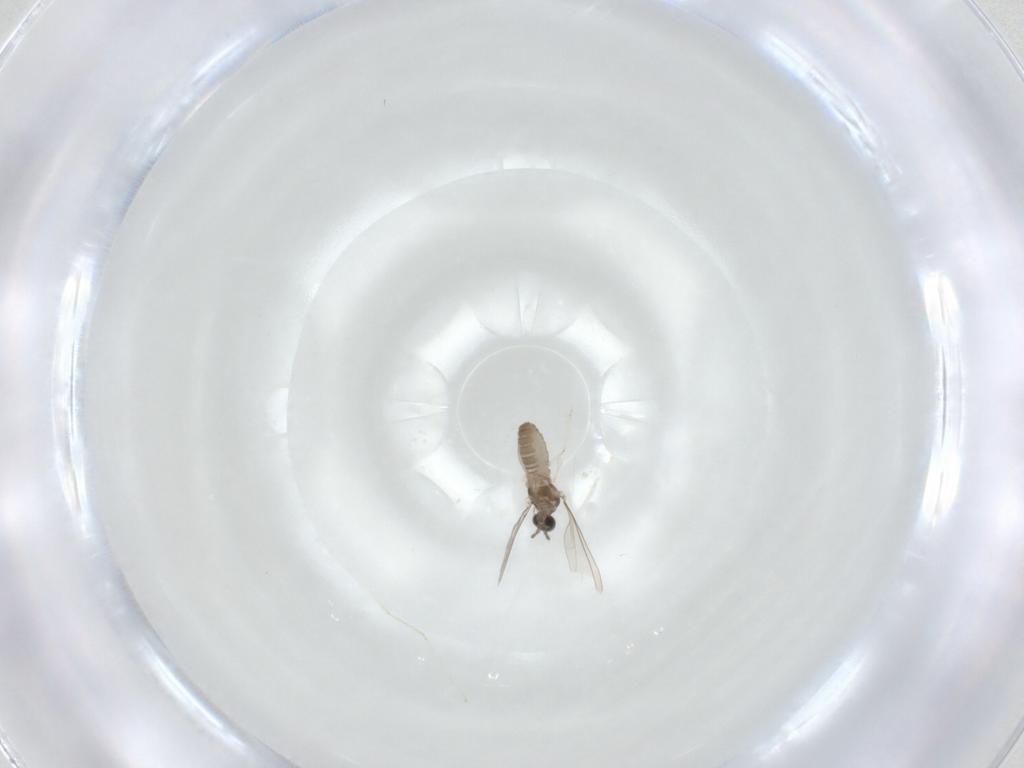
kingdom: Animalia
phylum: Arthropoda
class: Insecta
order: Diptera
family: Cecidomyiidae
